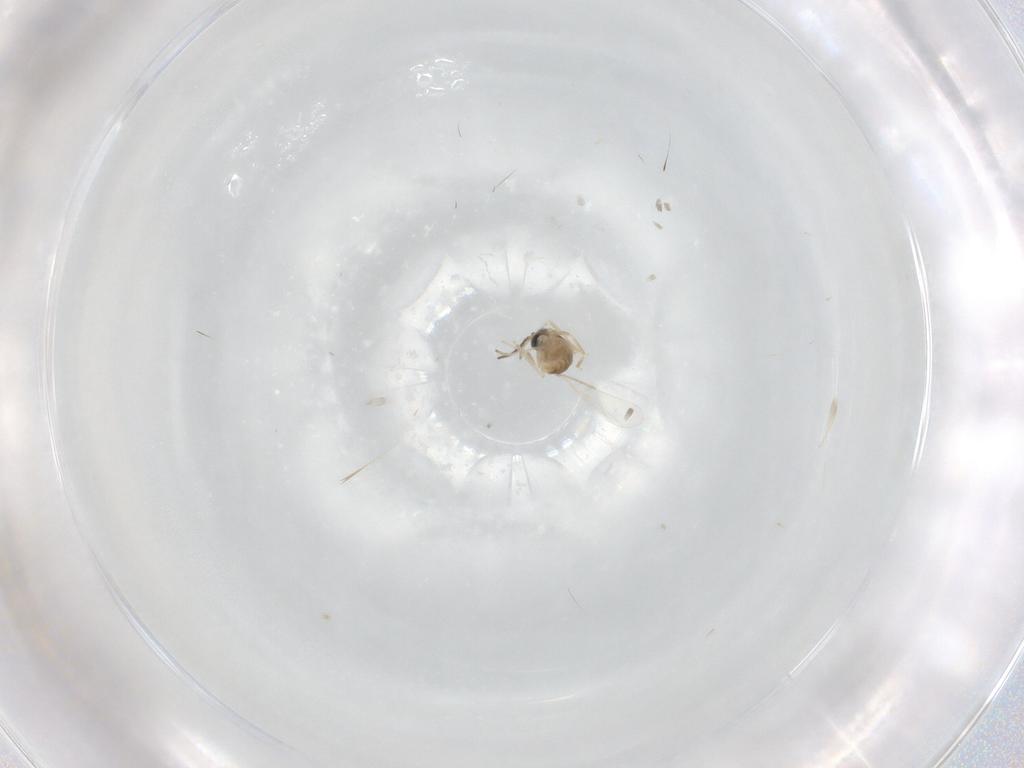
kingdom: Animalia
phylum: Arthropoda
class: Insecta
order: Diptera
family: Cecidomyiidae
